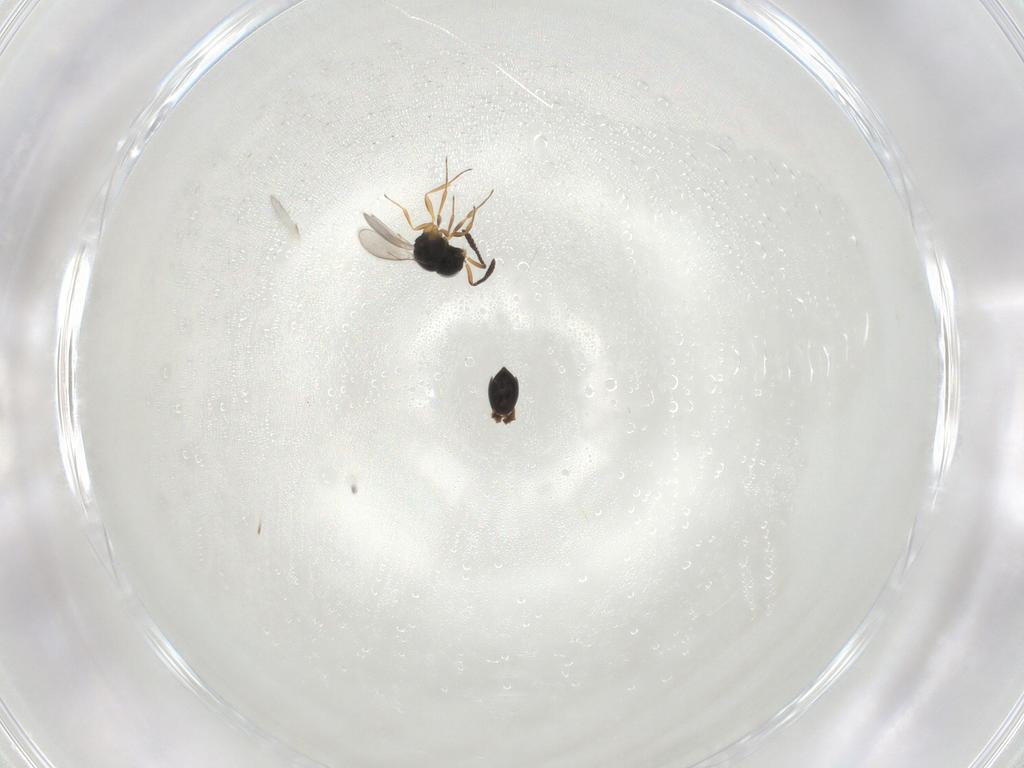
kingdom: Animalia
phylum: Arthropoda
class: Insecta
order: Hymenoptera
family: Scelionidae
